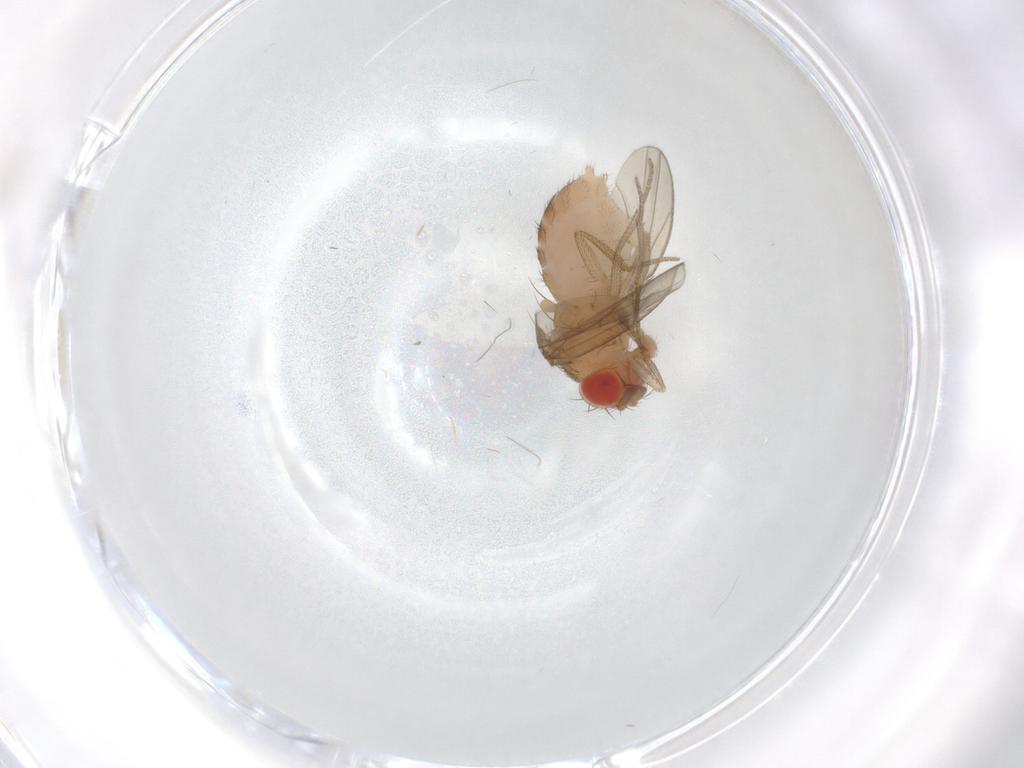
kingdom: Animalia
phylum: Arthropoda
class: Insecta
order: Diptera
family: Drosophilidae
